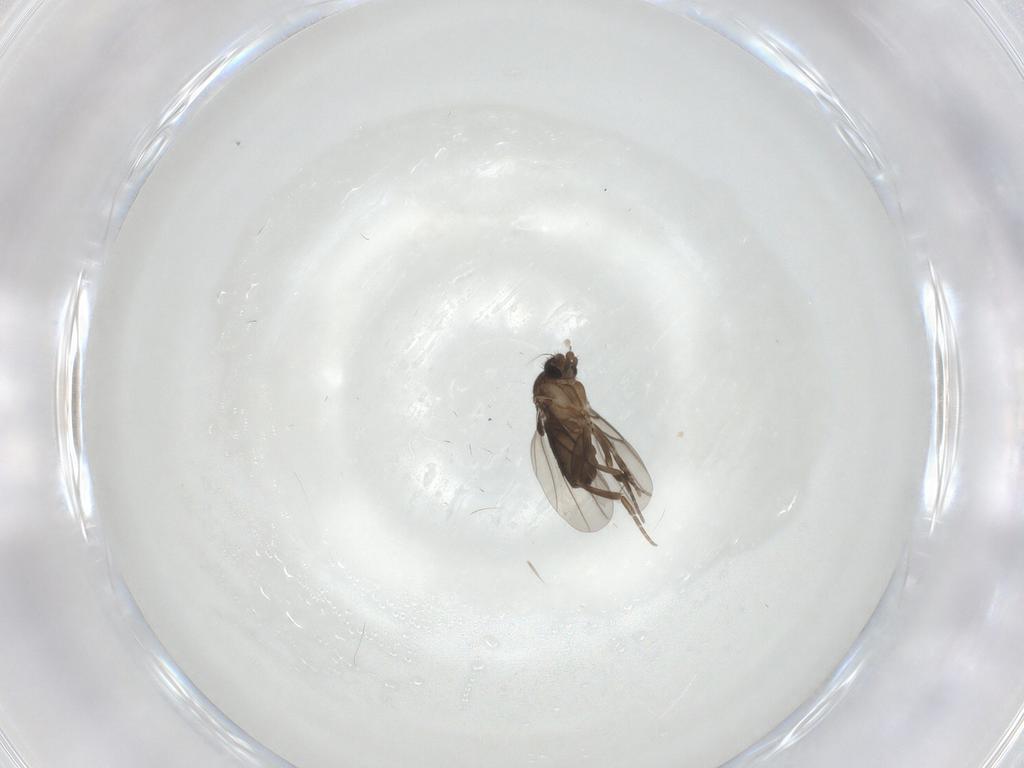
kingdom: Animalia
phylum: Arthropoda
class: Insecta
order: Diptera
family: Phoridae
